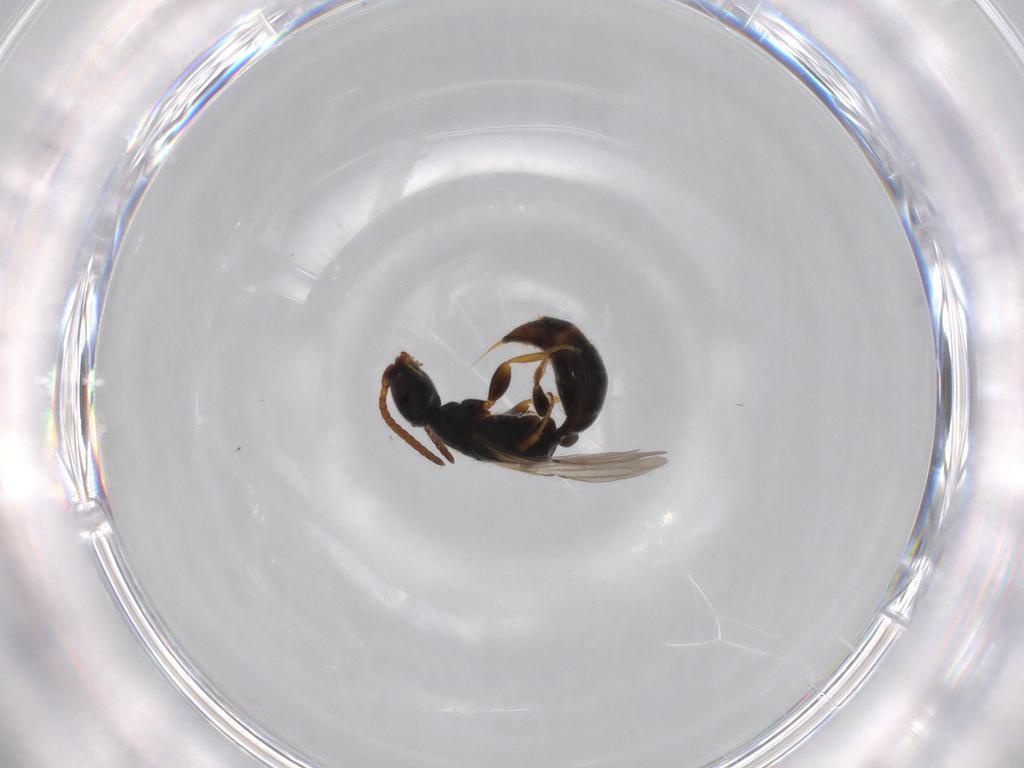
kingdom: Animalia
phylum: Arthropoda
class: Insecta
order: Hymenoptera
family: Bethylidae
